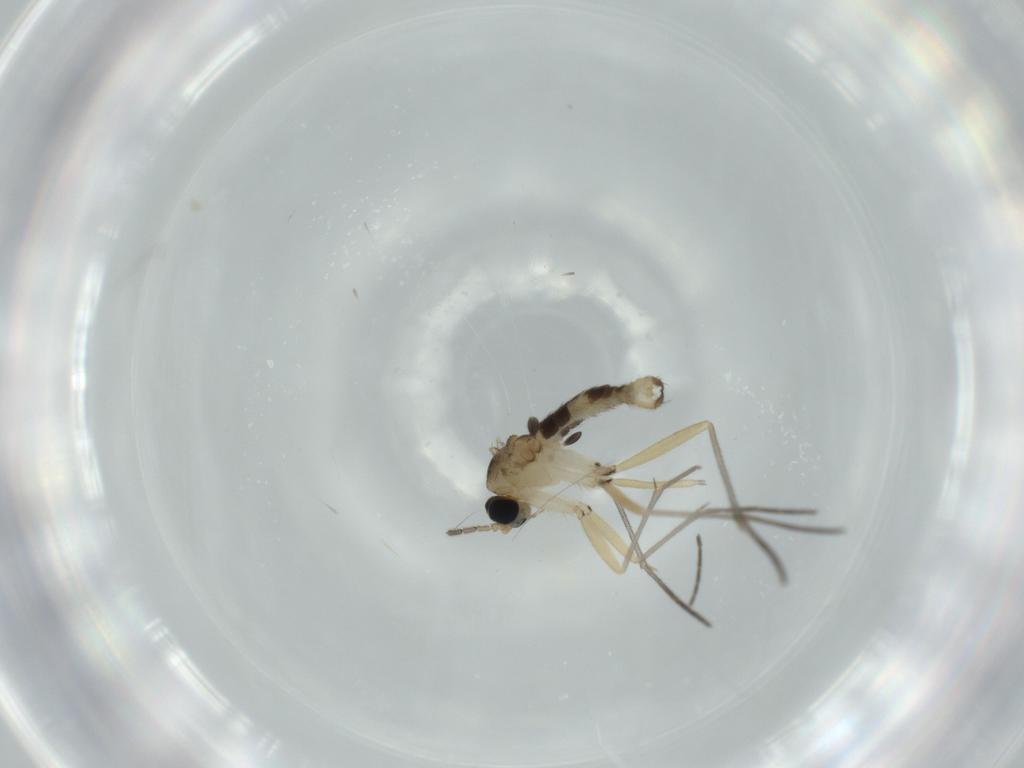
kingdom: Animalia
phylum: Arthropoda
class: Insecta
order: Diptera
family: Sciaridae
